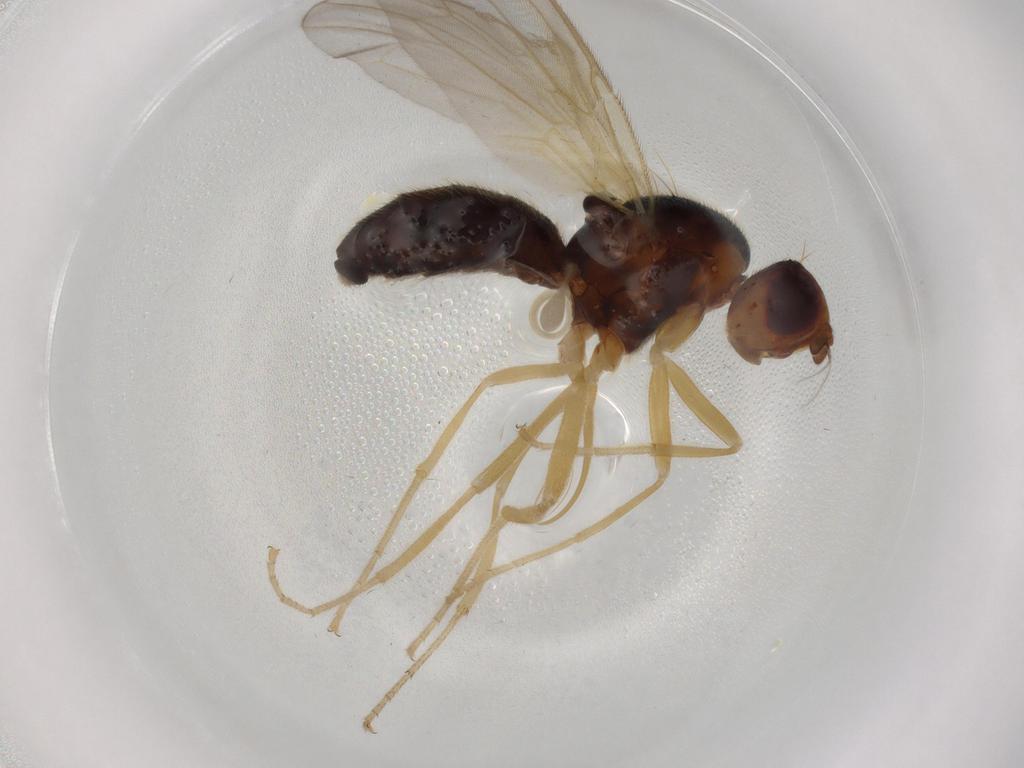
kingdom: Animalia
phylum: Arthropoda
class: Insecta
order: Diptera
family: Psilidae
